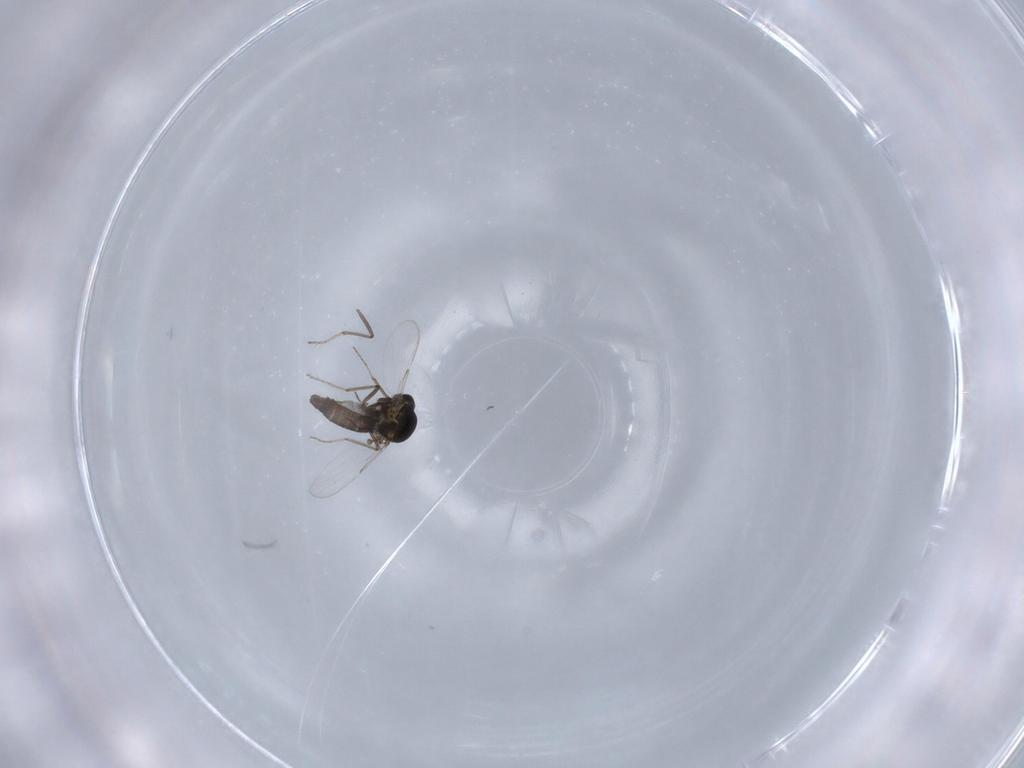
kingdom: Animalia
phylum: Arthropoda
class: Insecta
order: Diptera
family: Ceratopogonidae
